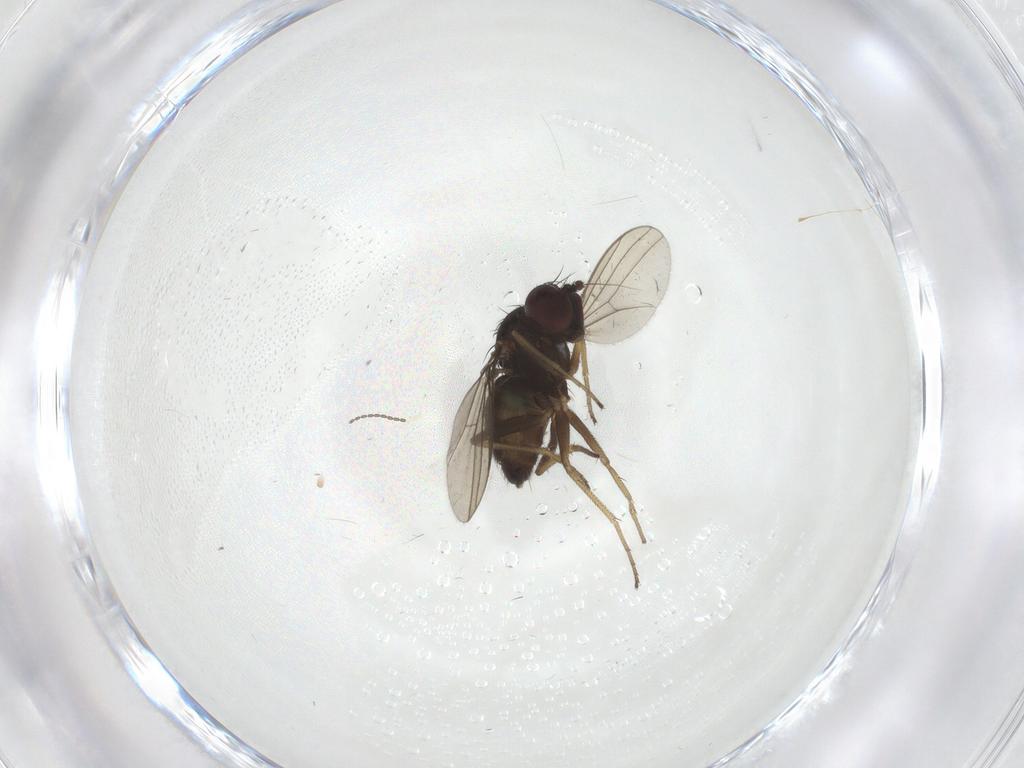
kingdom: Animalia
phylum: Arthropoda
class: Insecta
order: Diptera
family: Dolichopodidae
